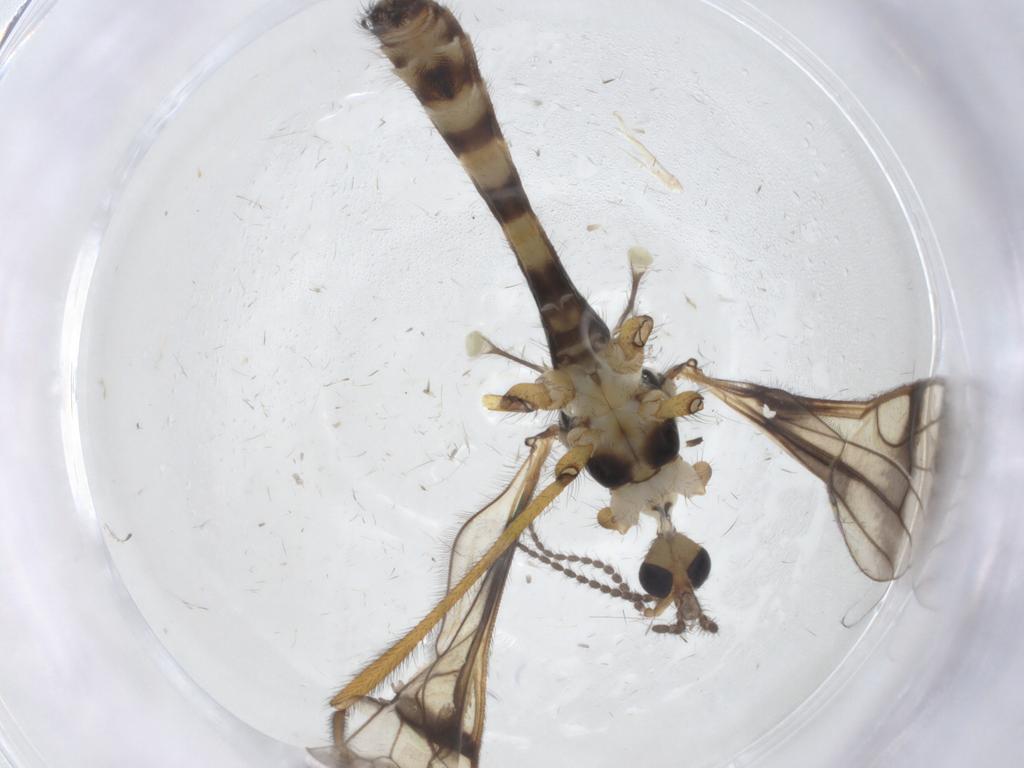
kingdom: Animalia
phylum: Arthropoda
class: Insecta
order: Diptera
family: Limoniidae
